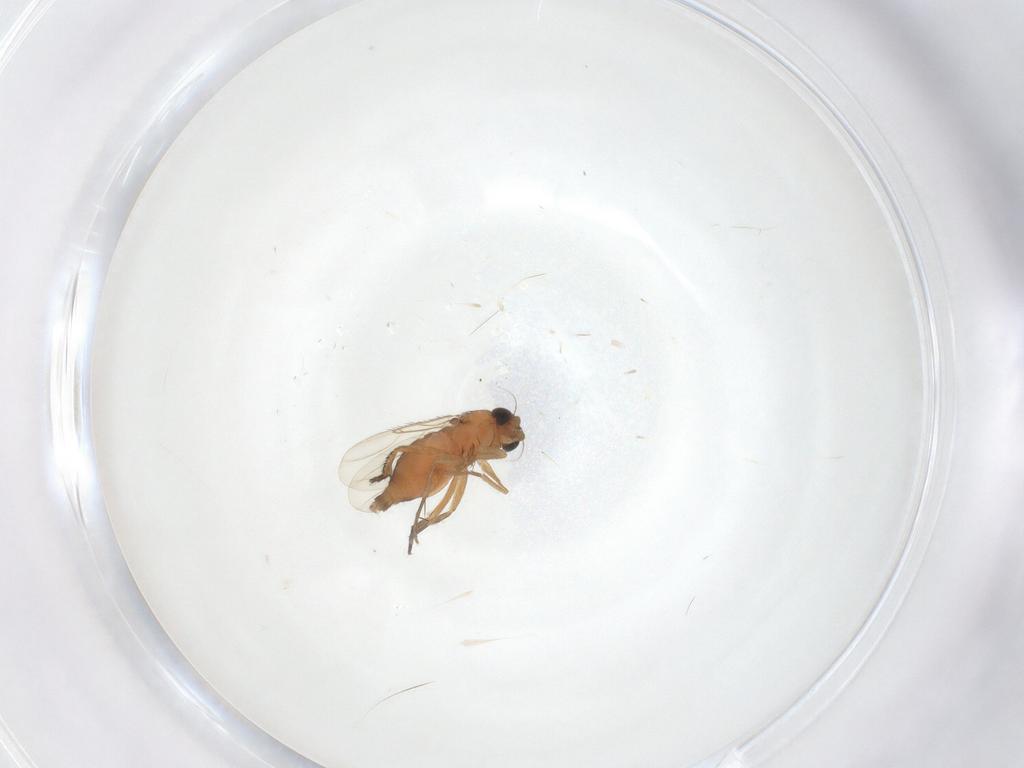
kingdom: Animalia
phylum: Arthropoda
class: Insecta
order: Diptera
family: Phoridae
